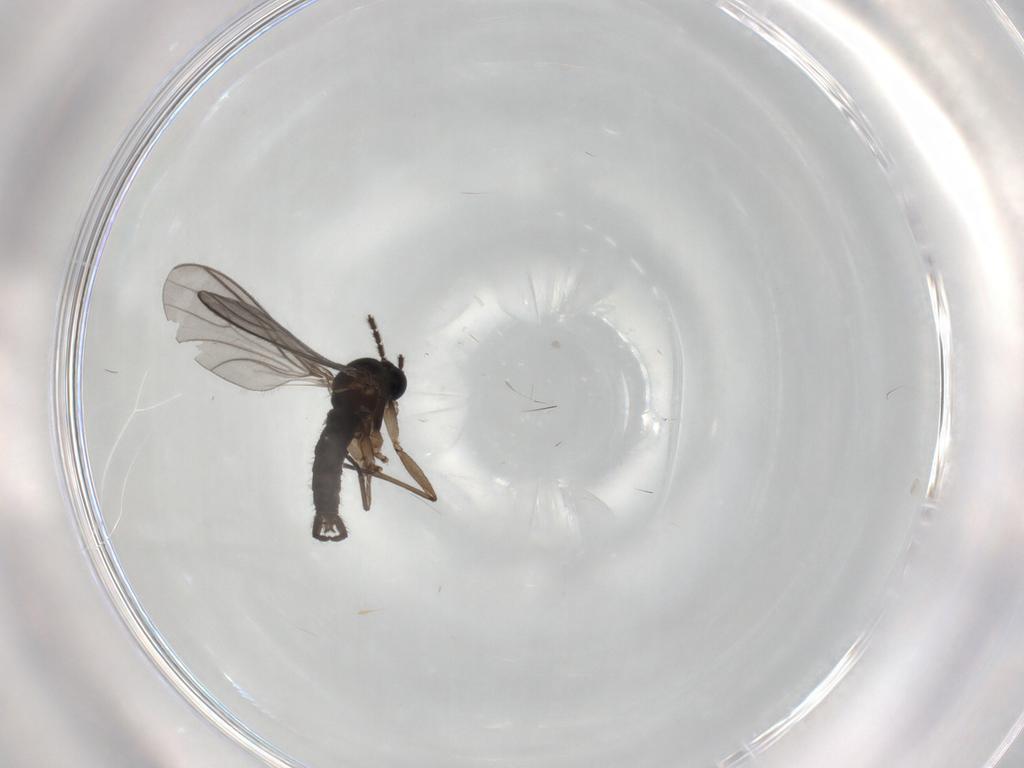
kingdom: Animalia
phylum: Arthropoda
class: Insecta
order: Diptera
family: Sciaridae
